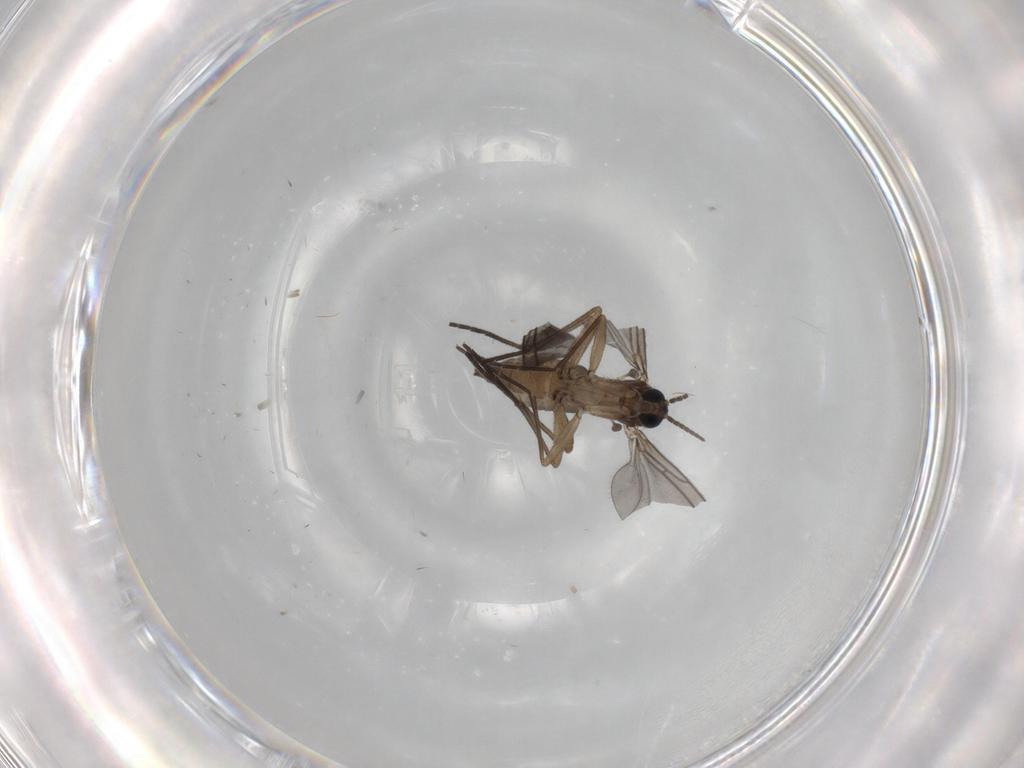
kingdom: Animalia
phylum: Arthropoda
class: Insecta
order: Diptera
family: Sciaridae
